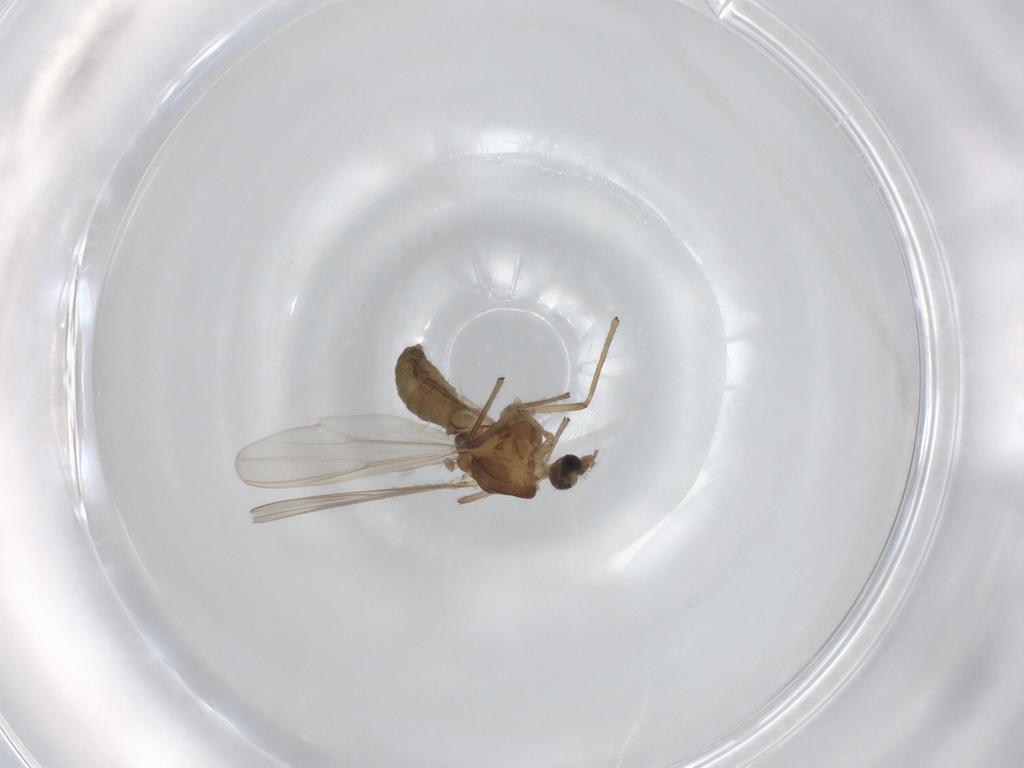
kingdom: Animalia
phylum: Arthropoda
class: Insecta
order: Diptera
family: Chironomidae
